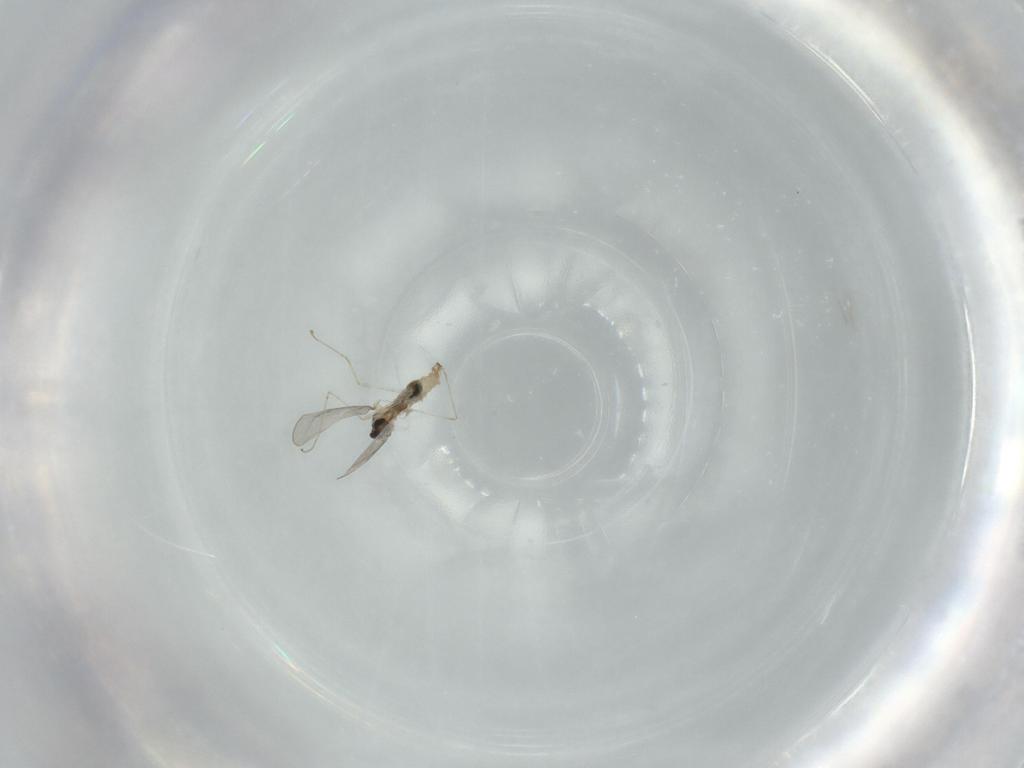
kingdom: Animalia
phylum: Arthropoda
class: Insecta
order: Diptera
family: Cecidomyiidae
